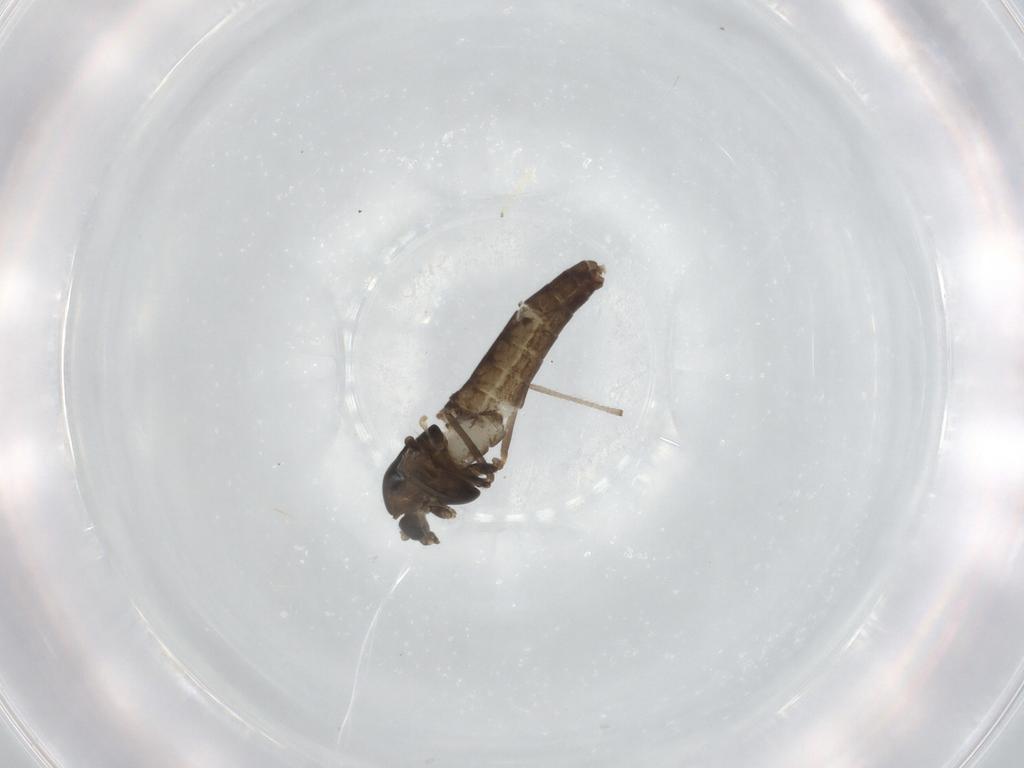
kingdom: Animalia
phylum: Arthropoda
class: Insecta
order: Diptera
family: Chironomidae
